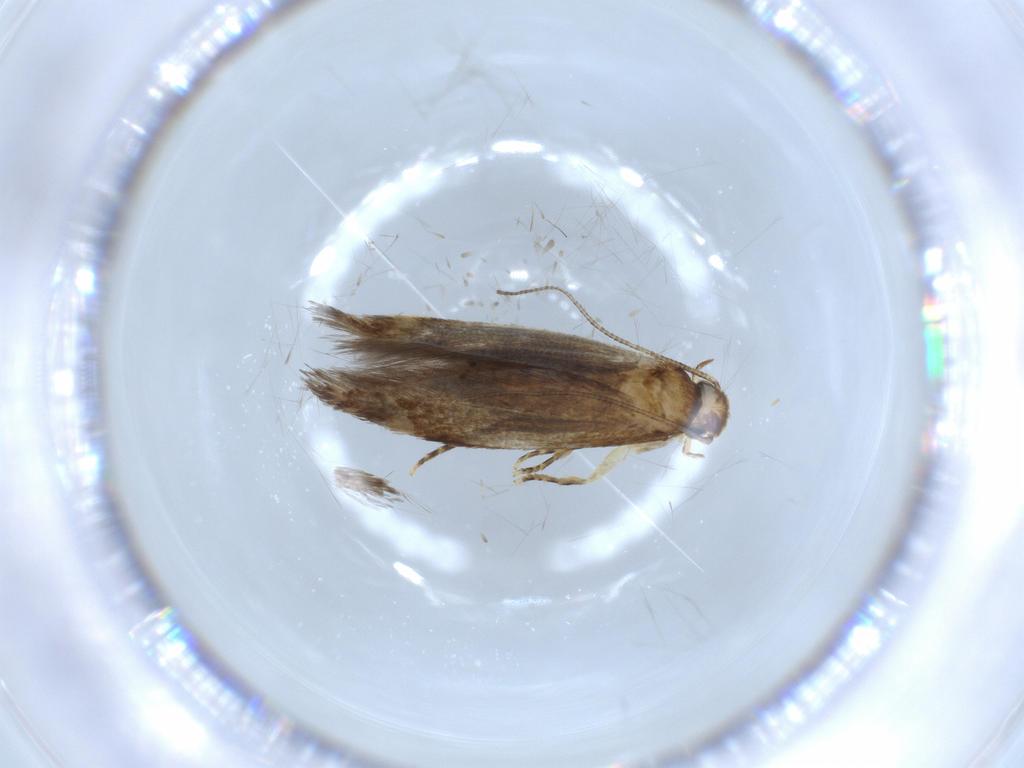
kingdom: Animalia
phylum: Arthropoda
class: Insecta
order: Lepidoptera
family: Tineidae
